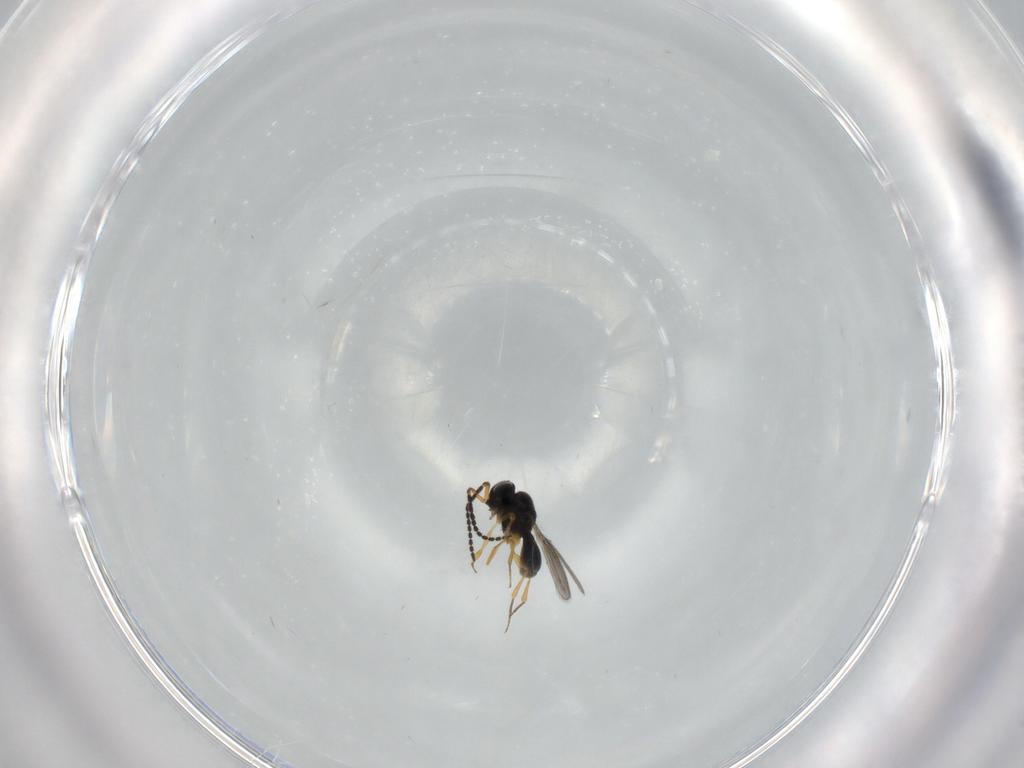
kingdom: Animalia
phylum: Arthropoda
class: Insecta
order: Hymenoptera
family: Scelionidae
